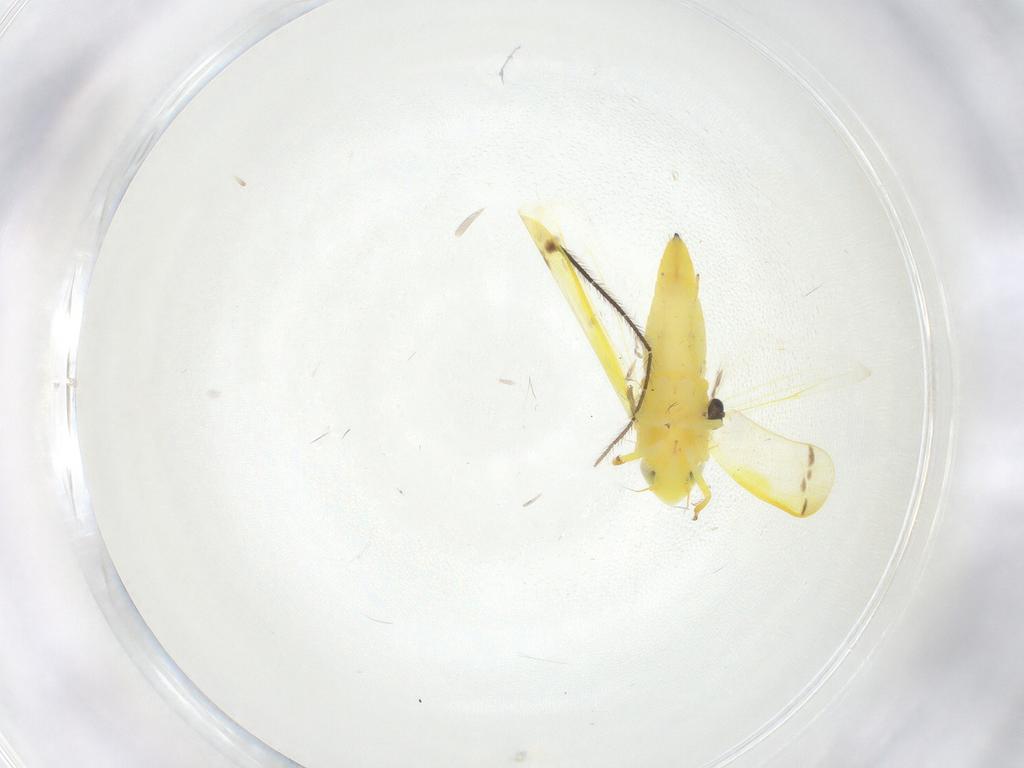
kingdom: Animalia
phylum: Arthropoda
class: Insecta
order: Hemiptera
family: Cicadellidae
